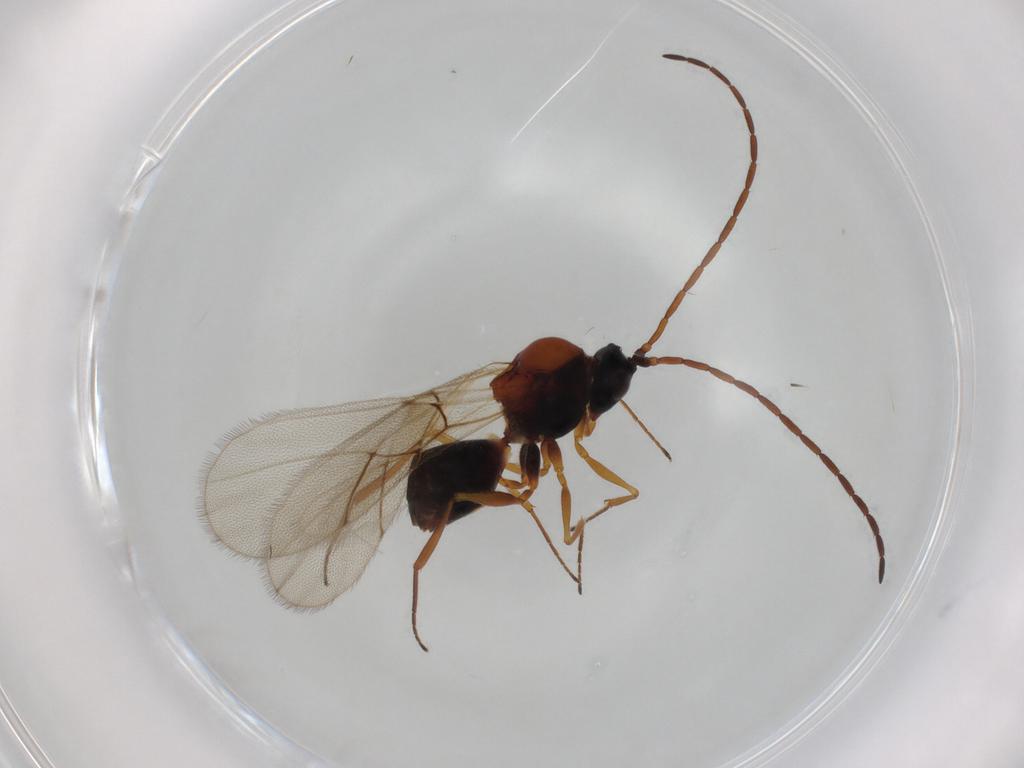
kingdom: Animalia
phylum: Arthropoda
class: Insecta
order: Hymenoptera
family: Figitidae
